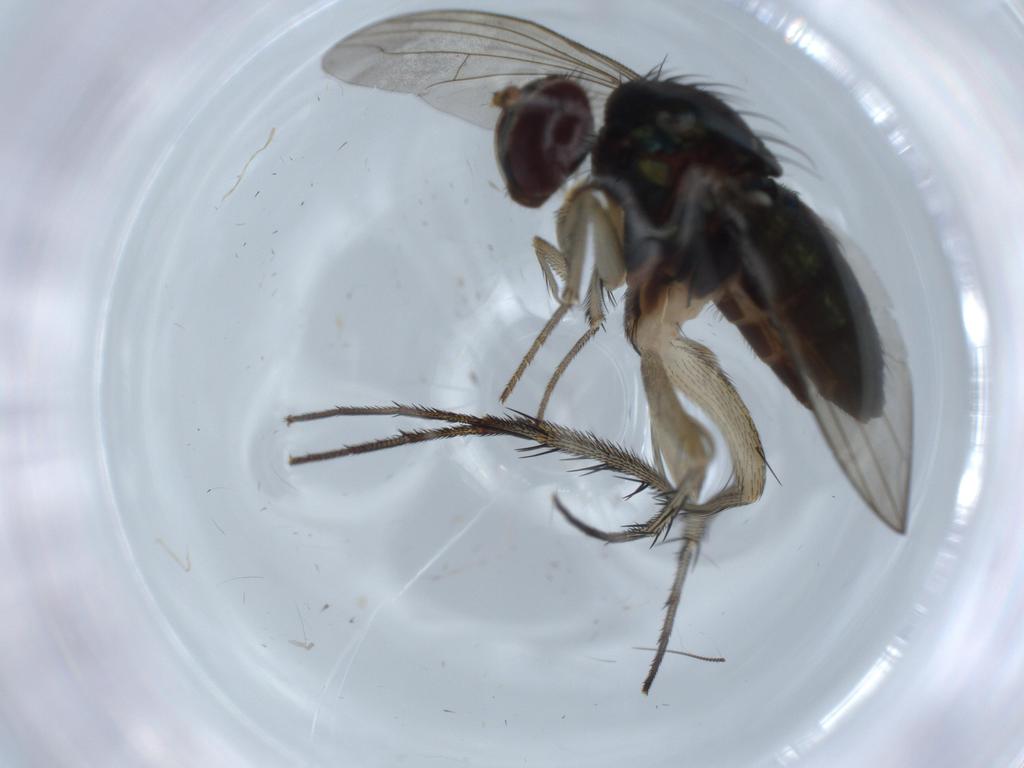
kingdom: Animalia
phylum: Arthropoda
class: Insecta
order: Diptera
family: Dolichopodidae
